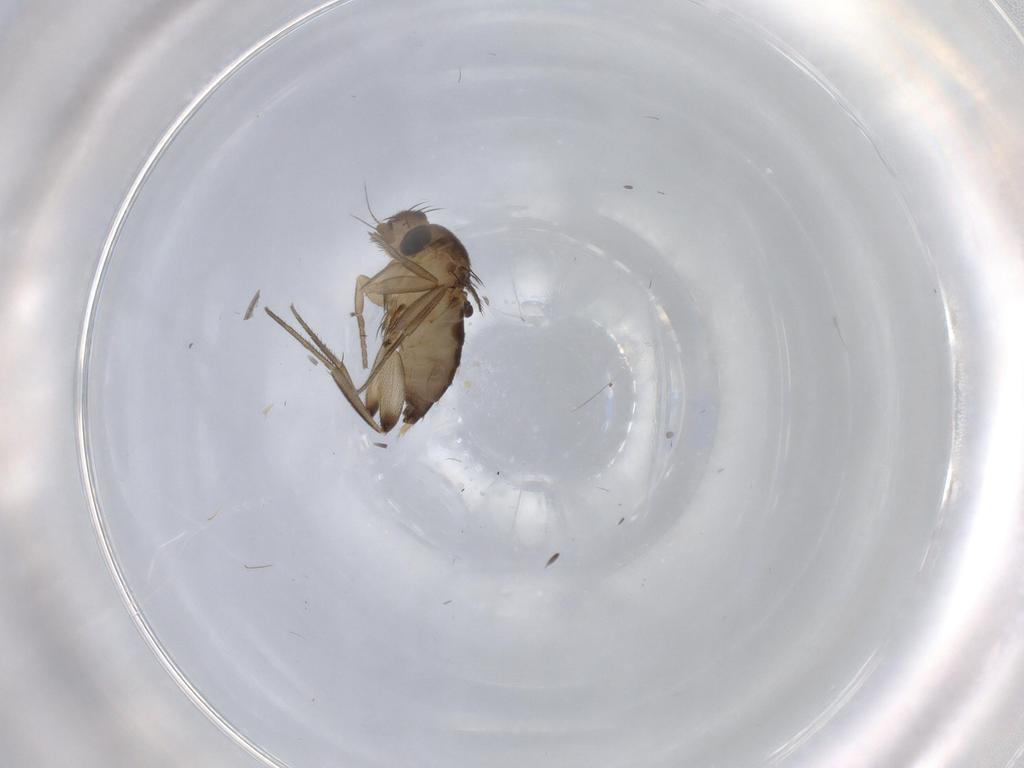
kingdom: Animalia
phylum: Arthropoda
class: Insecta
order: Diptera
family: Phoridae
